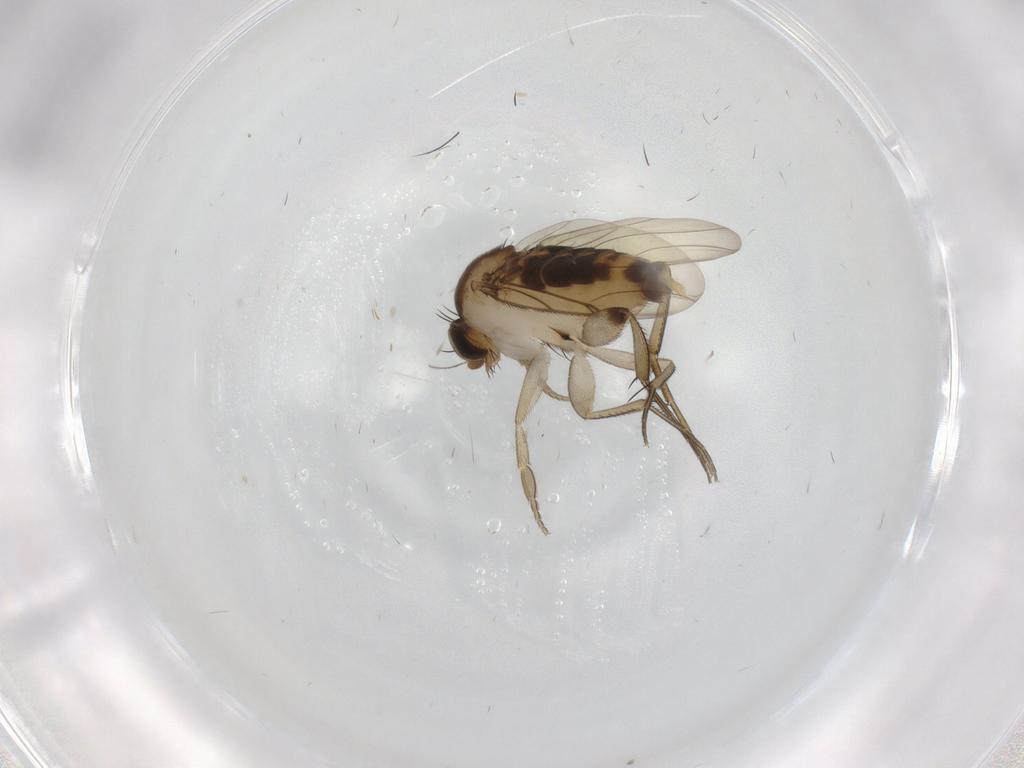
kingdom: Animalia
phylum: Arthropoda
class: Insecta
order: Diptera
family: Phoridae
